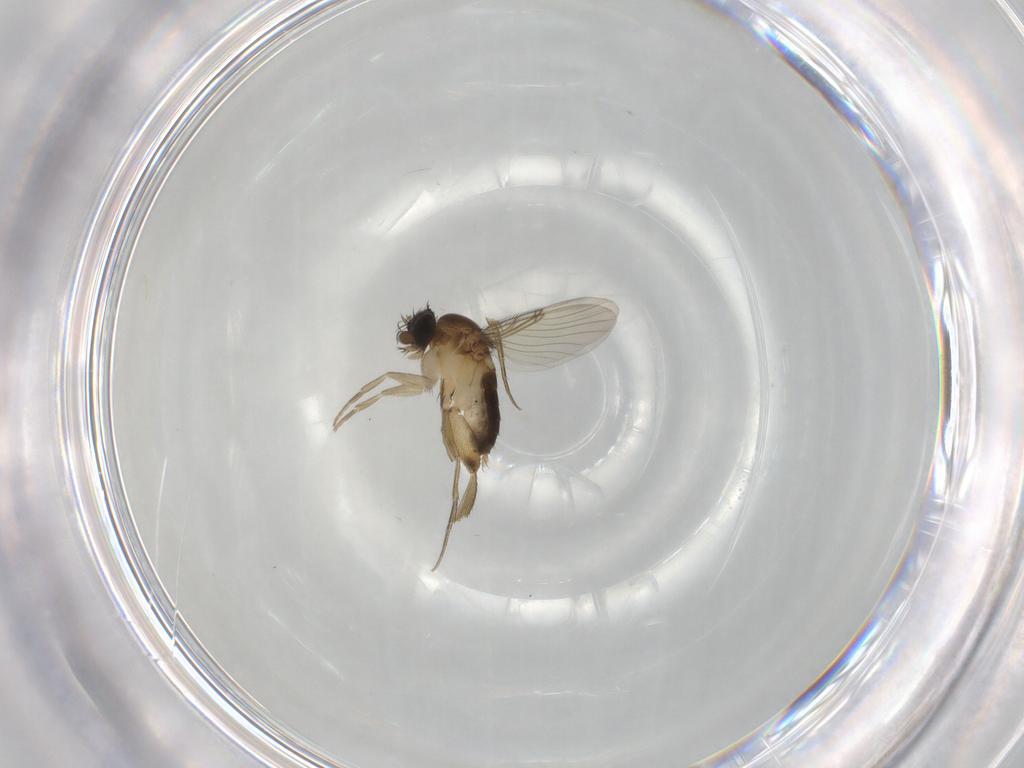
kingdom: Animalia
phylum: Arthropoda
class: Insecta
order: Diptera
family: Phoridae
